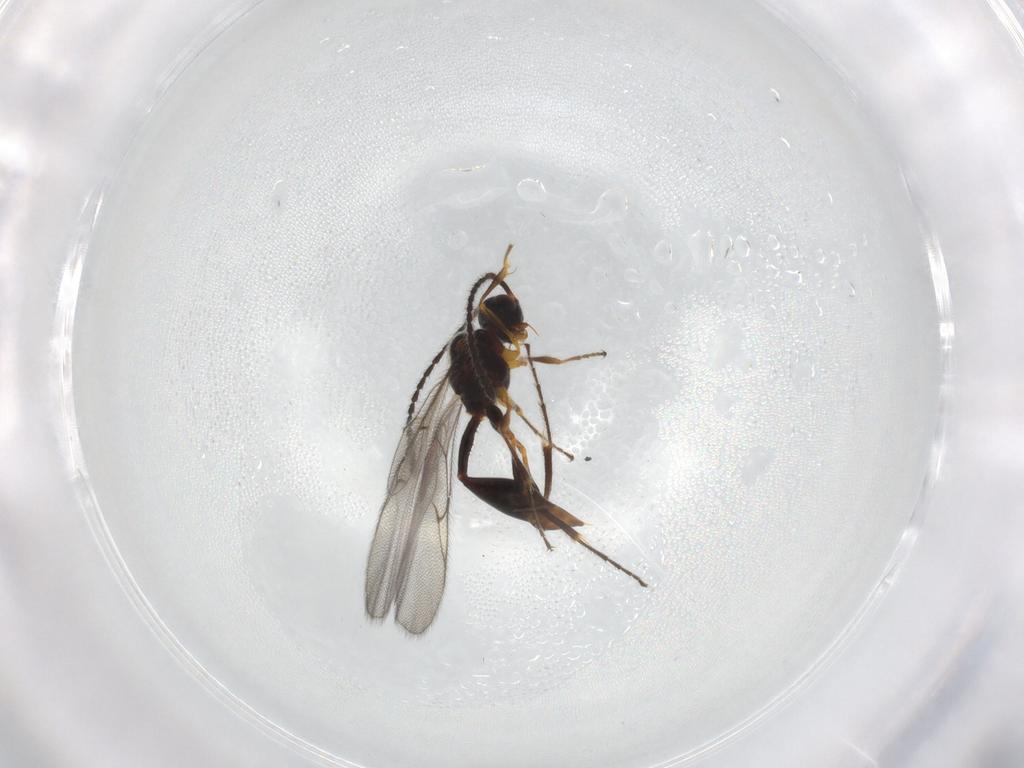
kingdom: Animalia
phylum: Arthropoda
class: Insecta
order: Hymenoptera
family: Diapriidae
